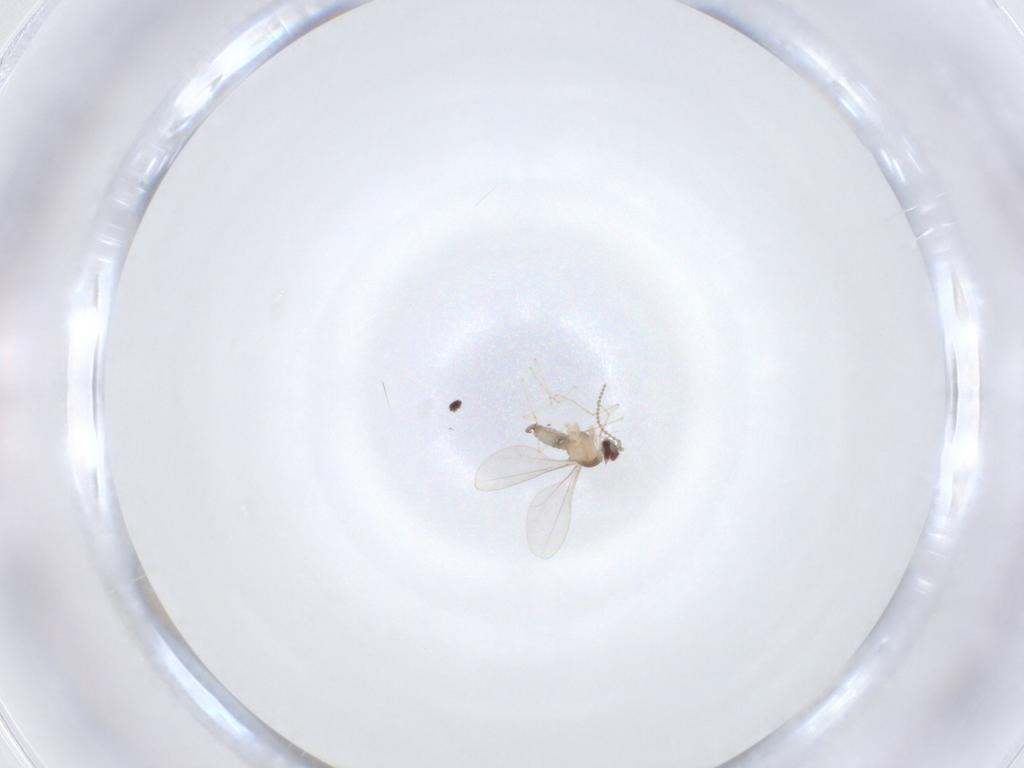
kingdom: Animalia
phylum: Arthropoda
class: Insecta
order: Diptera
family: Cecidomyiidae
